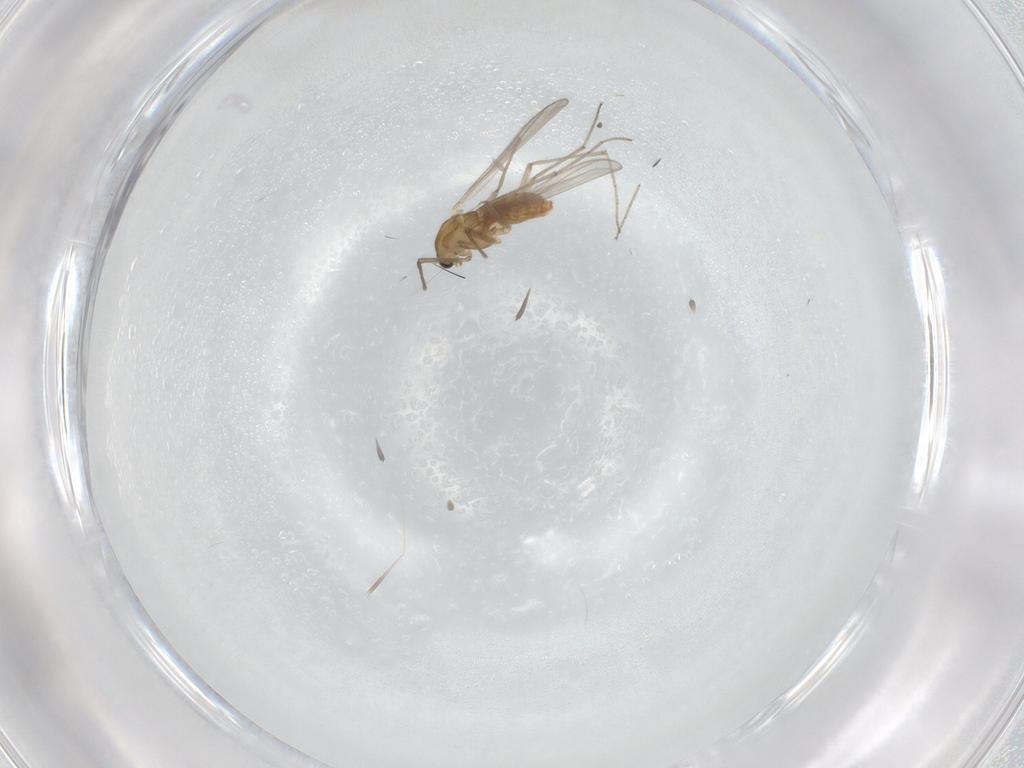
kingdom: Animalia
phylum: Arthropoda
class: Insecta
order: Diptera
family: Chironomidae
